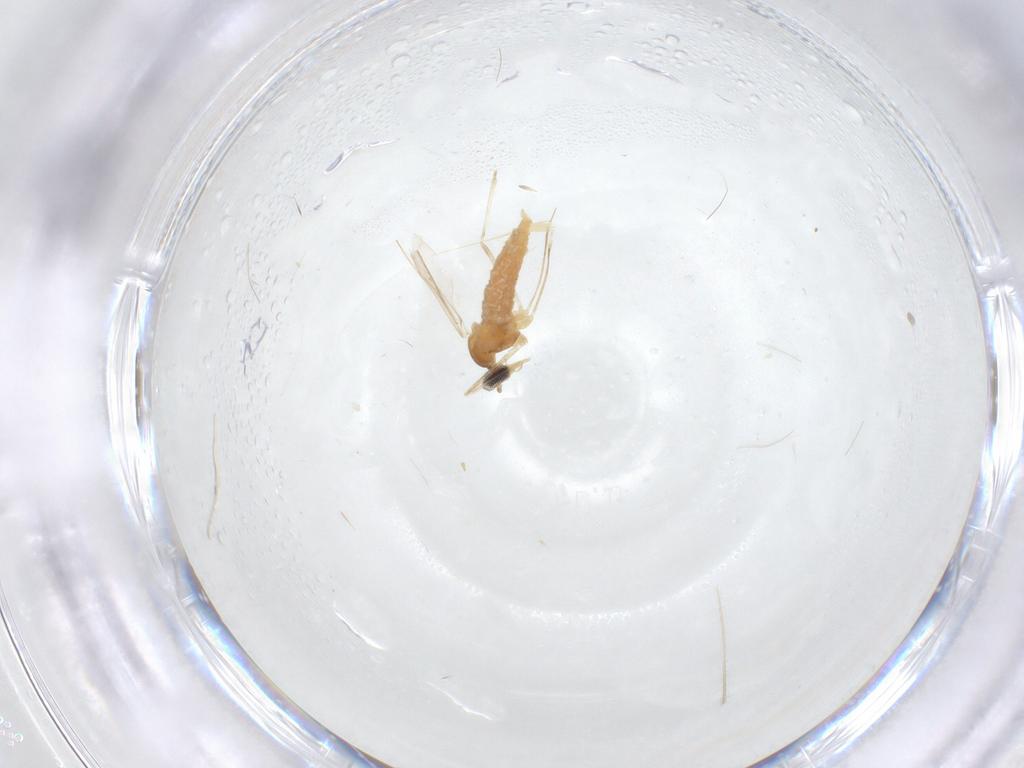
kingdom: Animalia
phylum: Arthropoda
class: Insecta
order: Diptera
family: Cecidomyiidae
